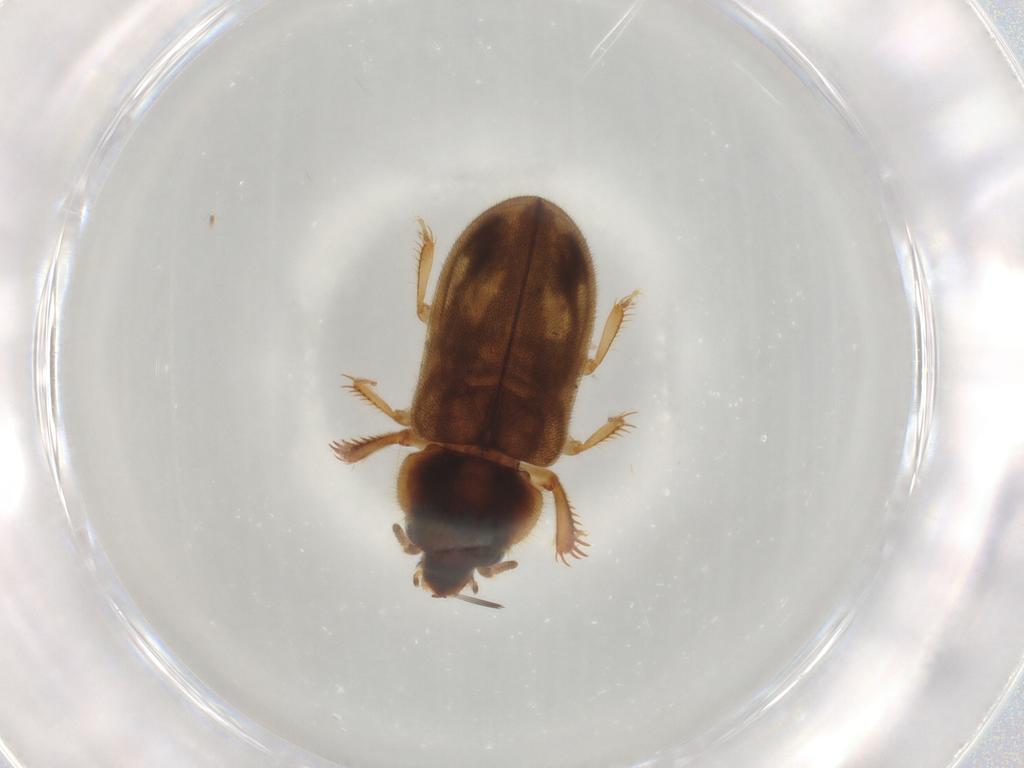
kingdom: Animalia
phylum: Arthropoda
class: Insecta
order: Coleoptera
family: Heteroceridae
